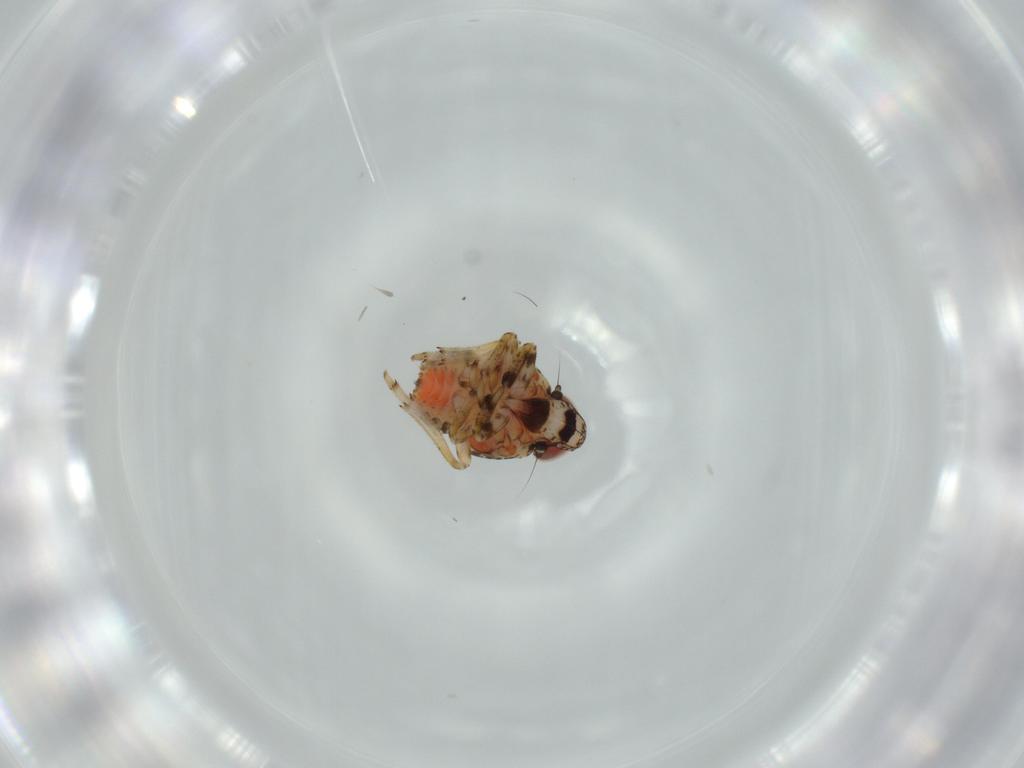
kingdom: Animalia
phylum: Arthropoda
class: Insecta
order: Hemiptera
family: Issidae
